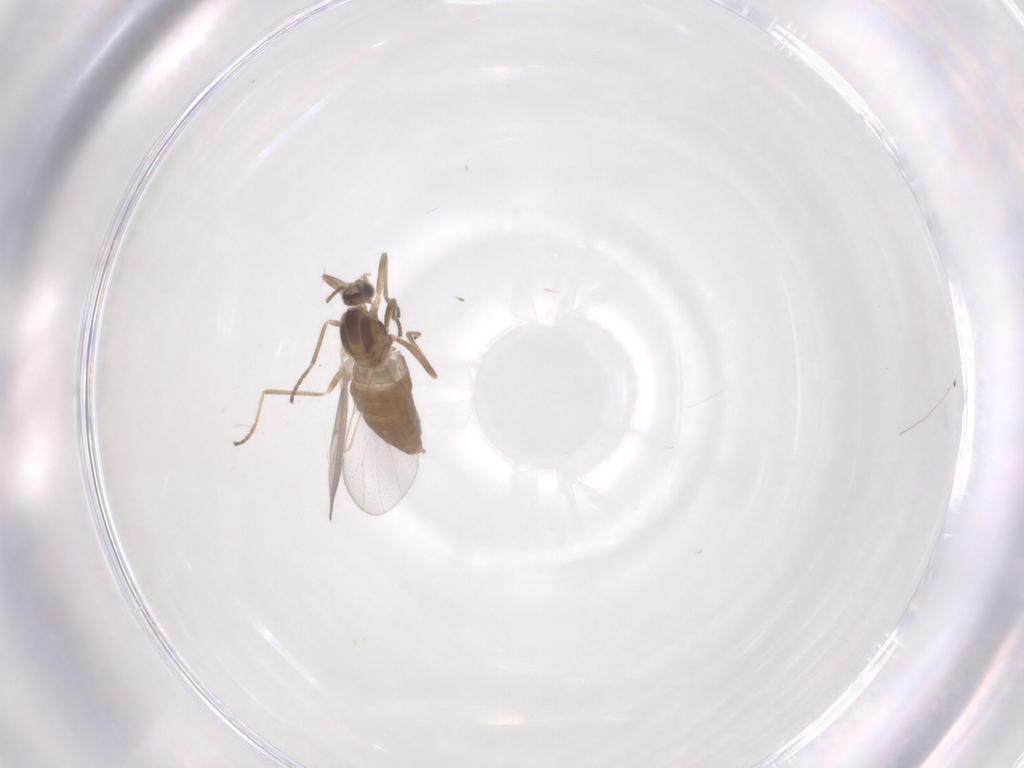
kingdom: Animalia
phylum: Arthropoda
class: Insecta
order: Diptera
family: Cecidomyiidae
